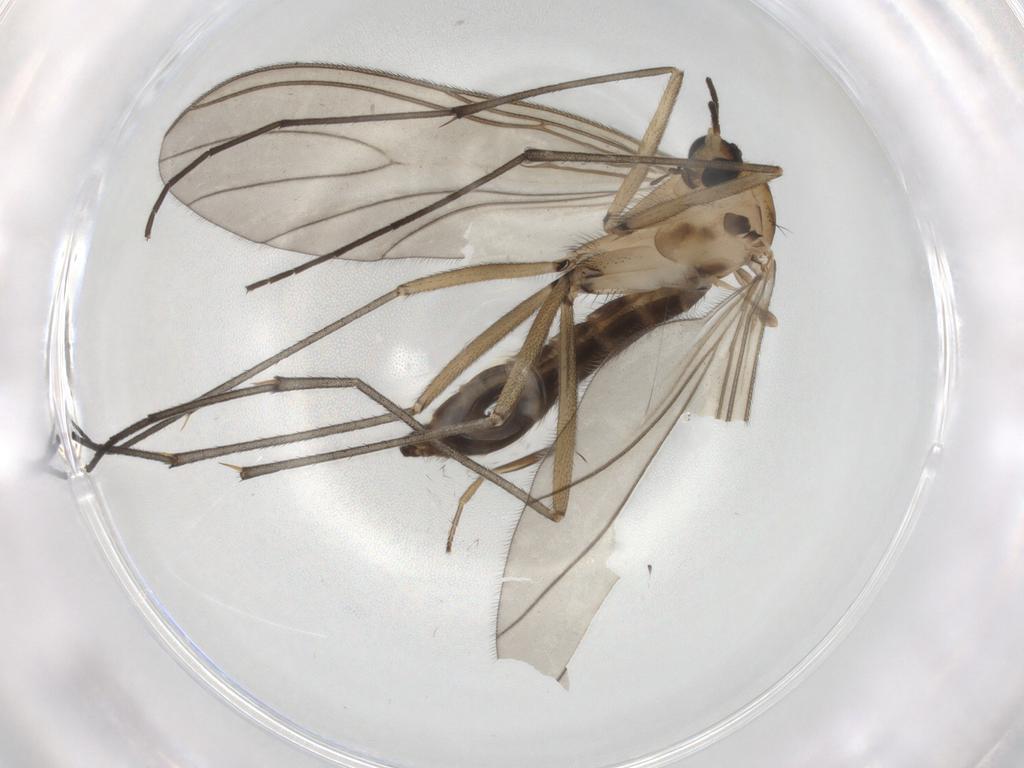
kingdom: Animalia
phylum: Arthropoda
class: Insecta
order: Diptera
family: Sciaridae
